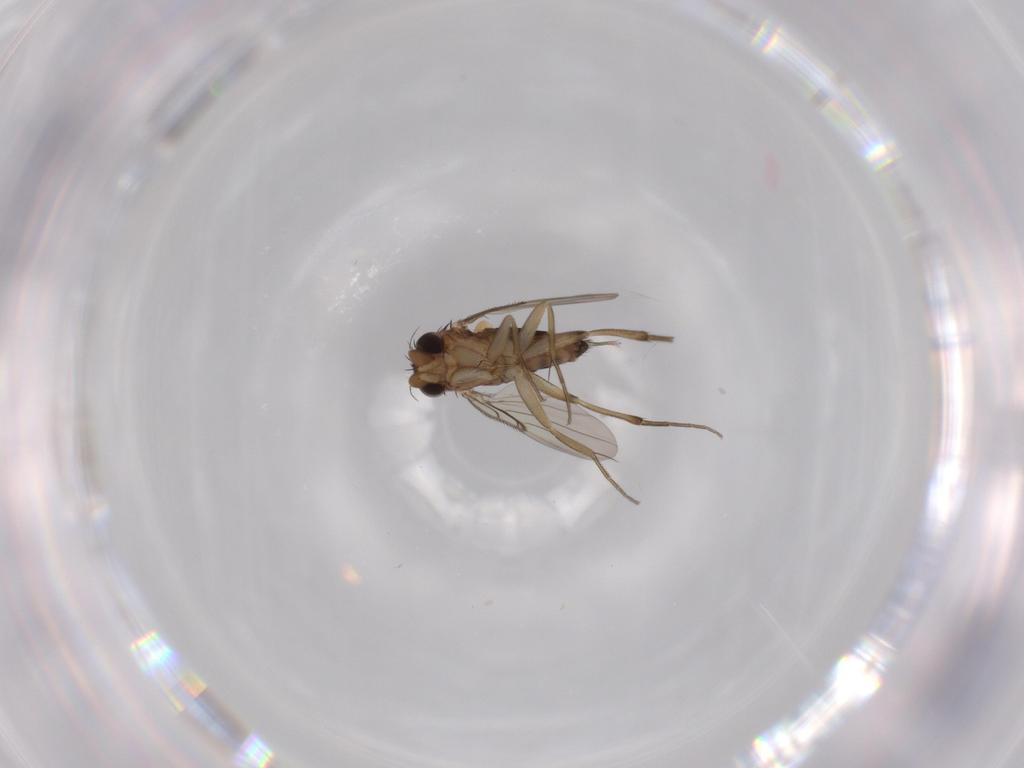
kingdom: Animalia
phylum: Arthropoda
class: Insecta
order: Diptera
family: Phoridae
